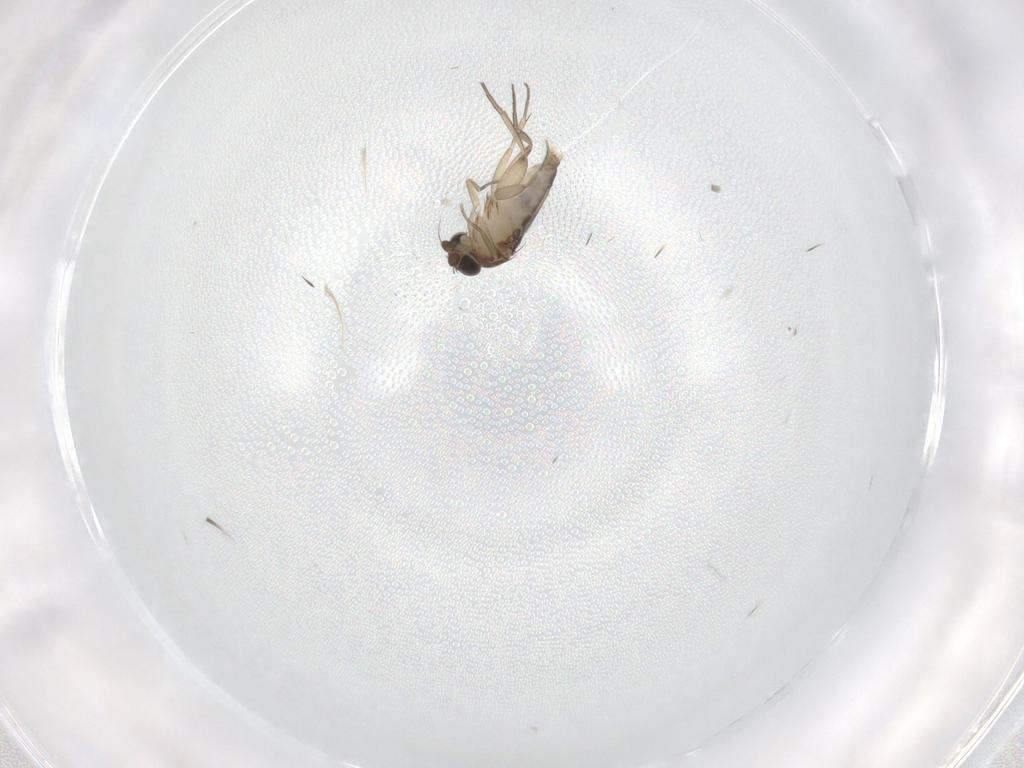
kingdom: Animalia
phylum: Arthropoda
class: Insecta
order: Diptera
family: Phoridae
